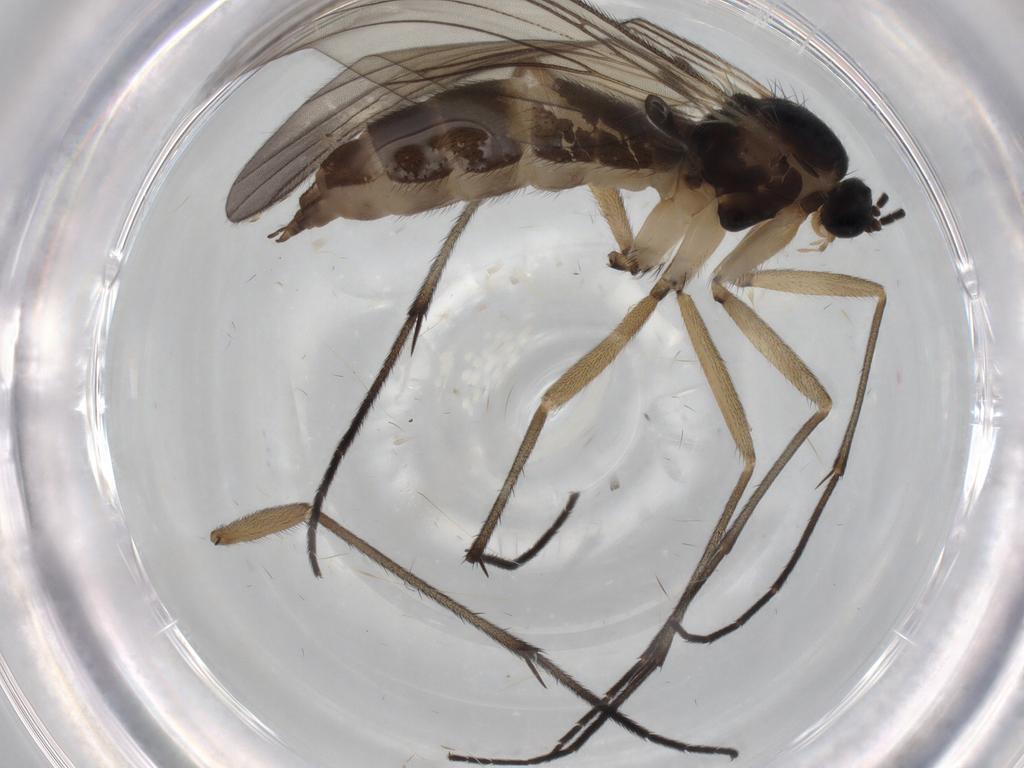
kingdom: Animalia
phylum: Arthropoda
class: Insecta
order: Diptera
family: Sciaridae
